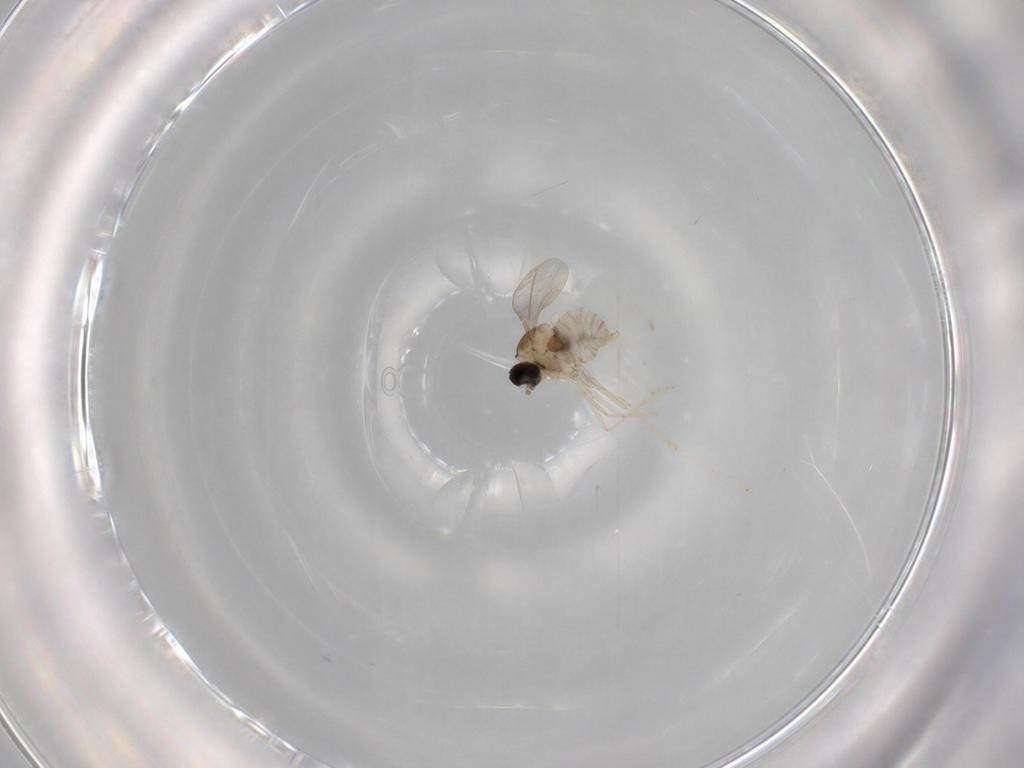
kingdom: Animalia
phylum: Arthropoda
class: Insecta
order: Diptera
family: Cecidomyiidae
